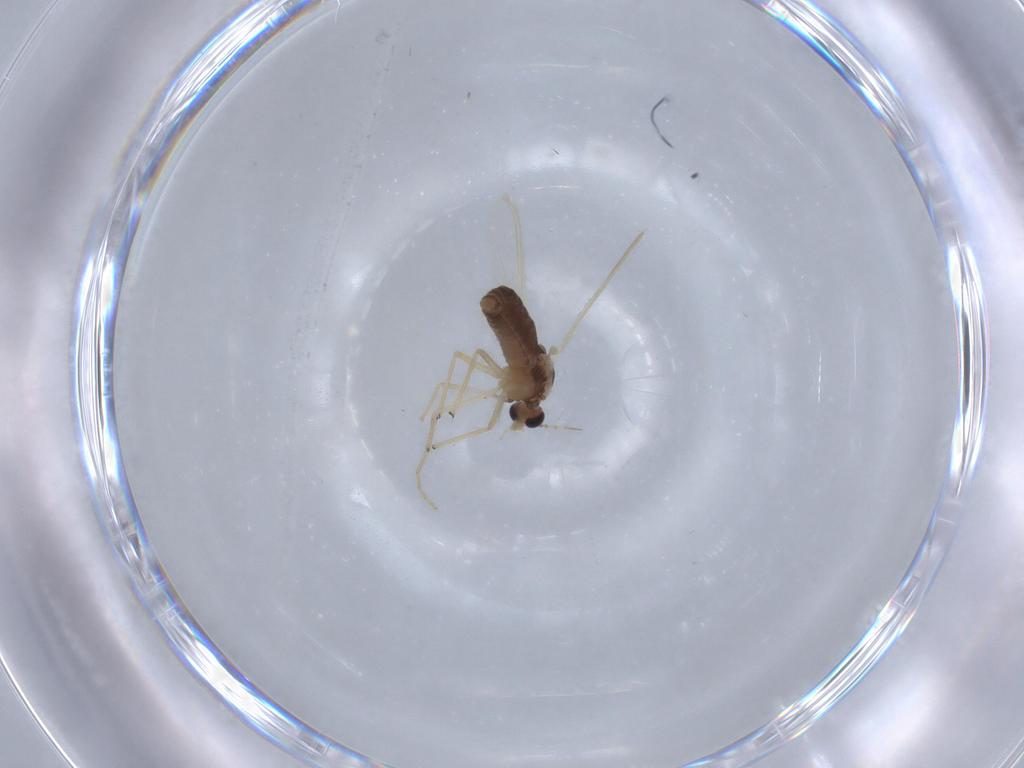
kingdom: Animalia
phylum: Arthropoda
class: Insecta
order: Diptera
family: Chironomidae
